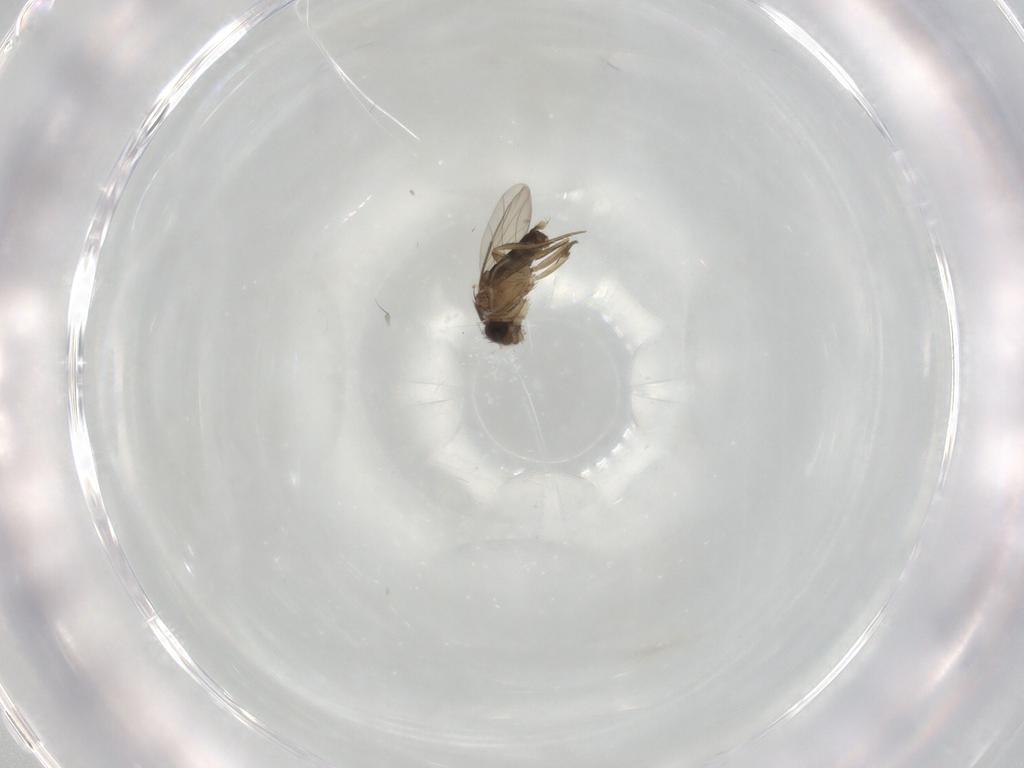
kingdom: Animalia
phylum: Arthropoda
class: Insecta
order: Diptera
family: Phoridae
